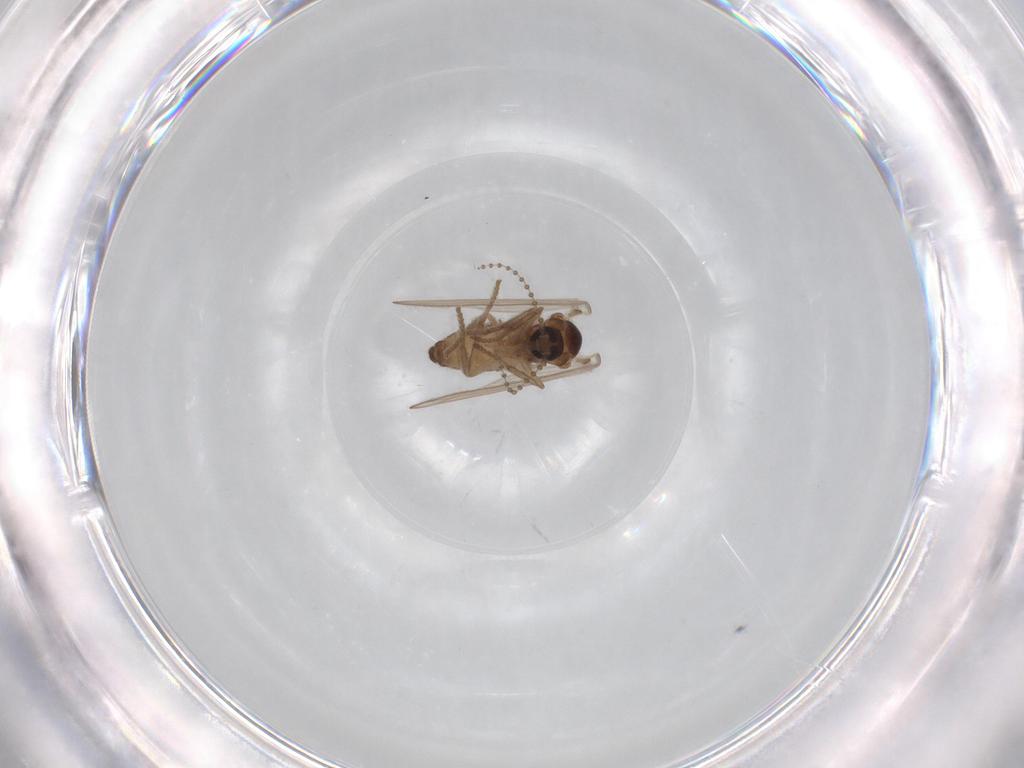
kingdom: Animalia
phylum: Arthropoda
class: Insecta
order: Diptera
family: Psychodidae
